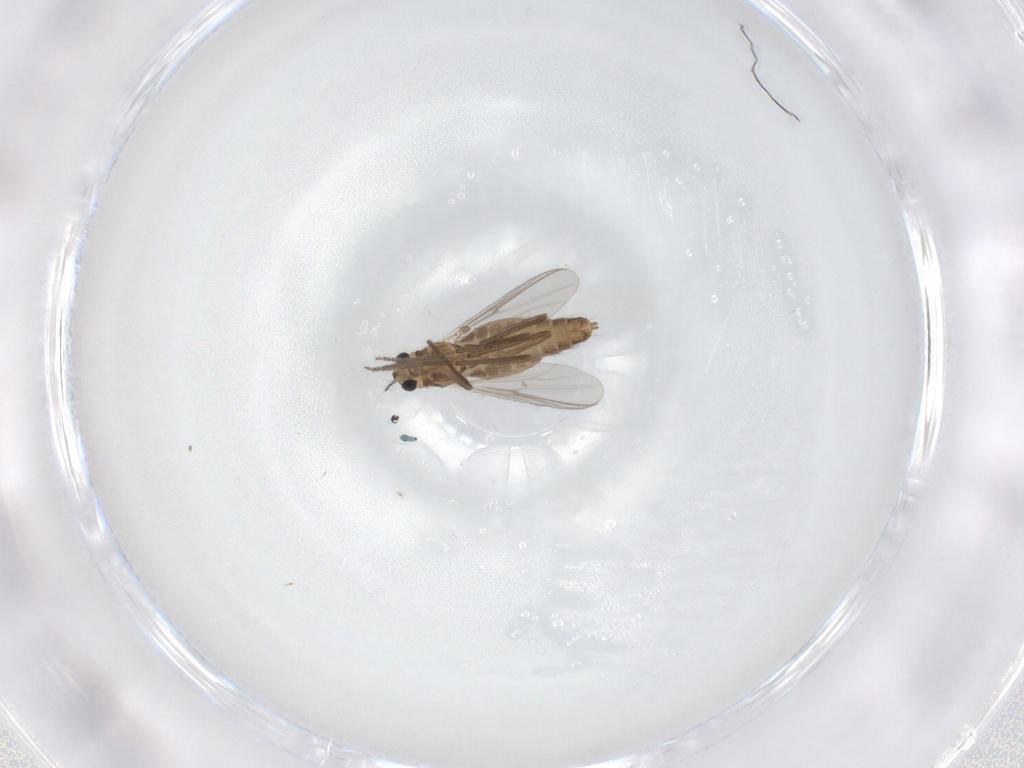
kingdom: Animalia
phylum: Arthropoda
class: Insecta
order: Diptera
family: Chironomidae
